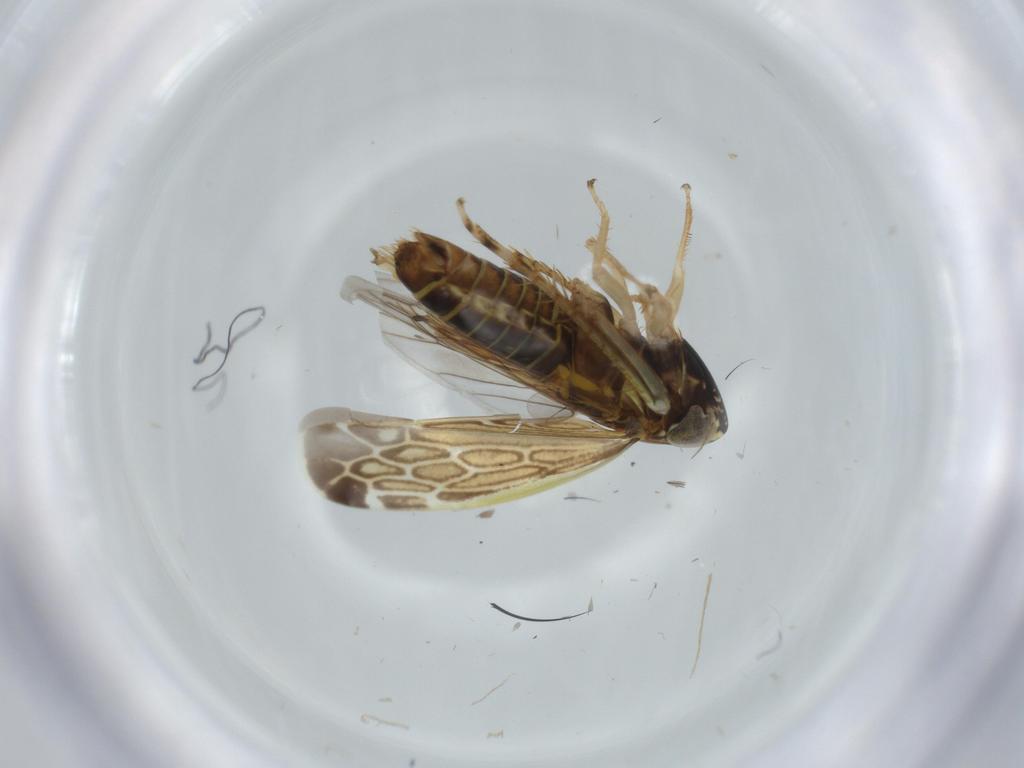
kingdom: Animalia
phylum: Arthropoda
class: Insecta
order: Hemiptera
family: Cicadellidae
